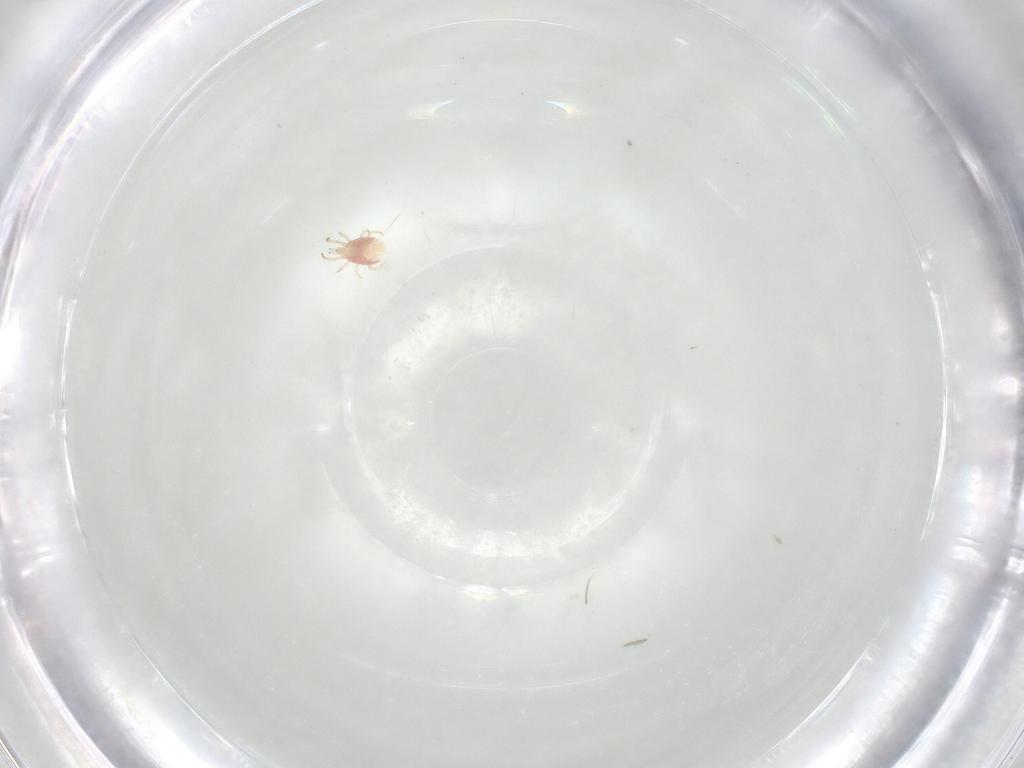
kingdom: Animalia
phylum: Arthropoda
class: Arachnida
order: Mesostigmata
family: Phytoseiidae
